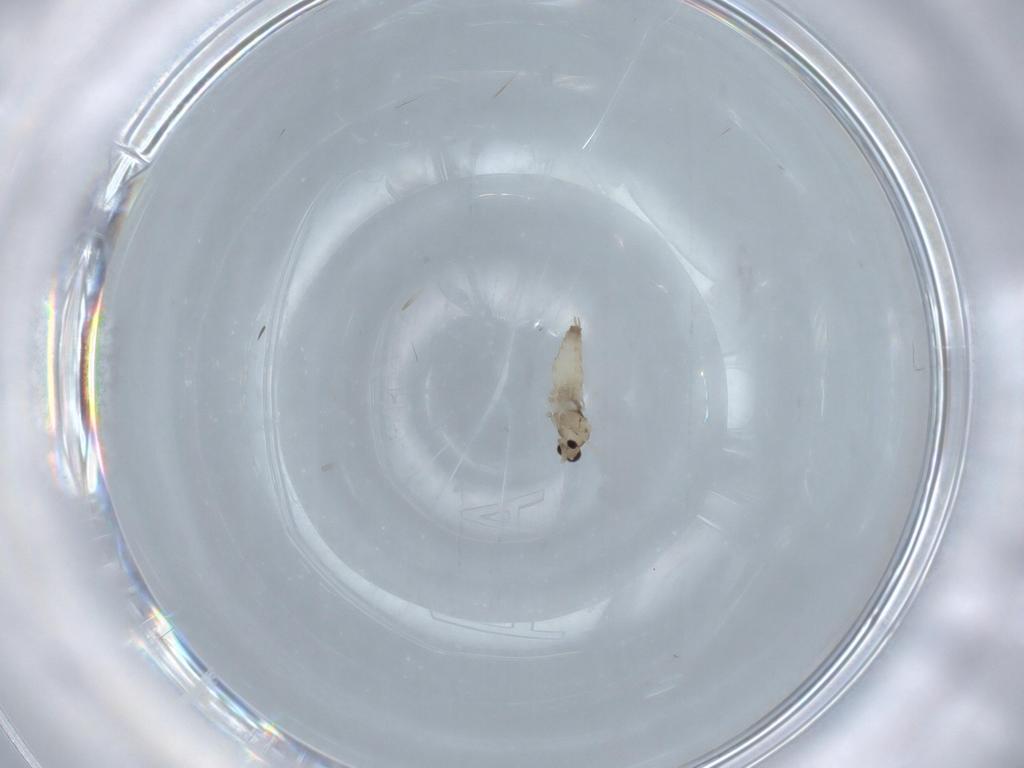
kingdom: Animalia
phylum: Arthropoda
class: Insecta
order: Diptera
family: Cecidomyiidae
